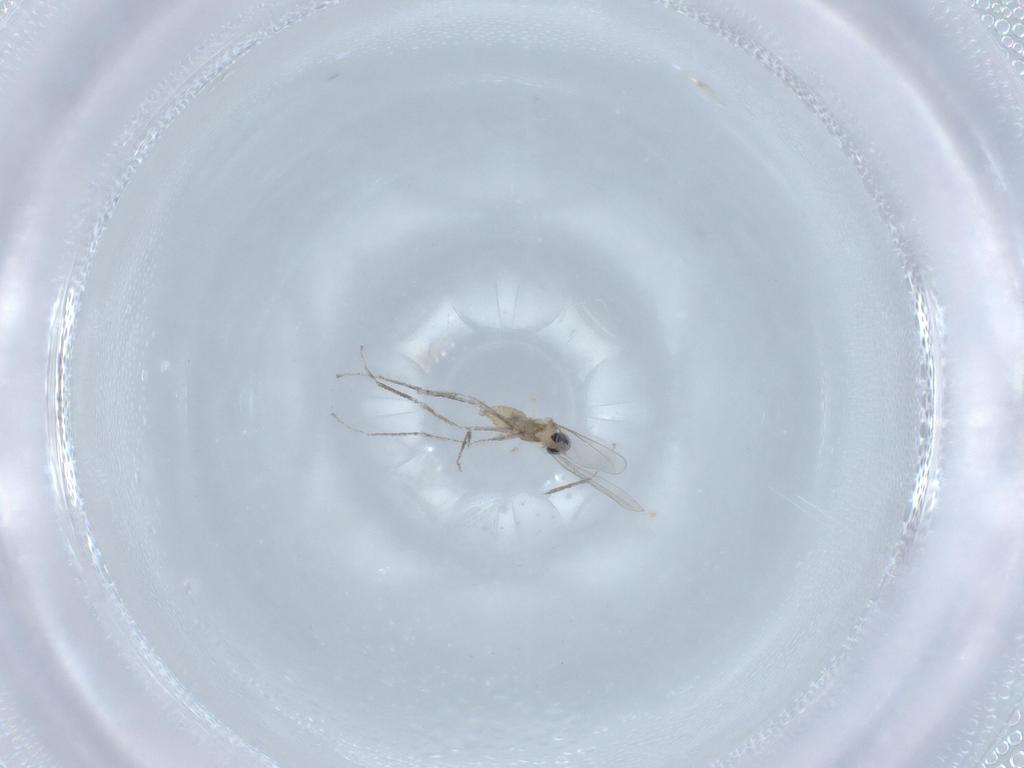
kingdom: Animalia
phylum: Arthropoda
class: Insecta
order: Diptera
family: Cecidomyiidae
